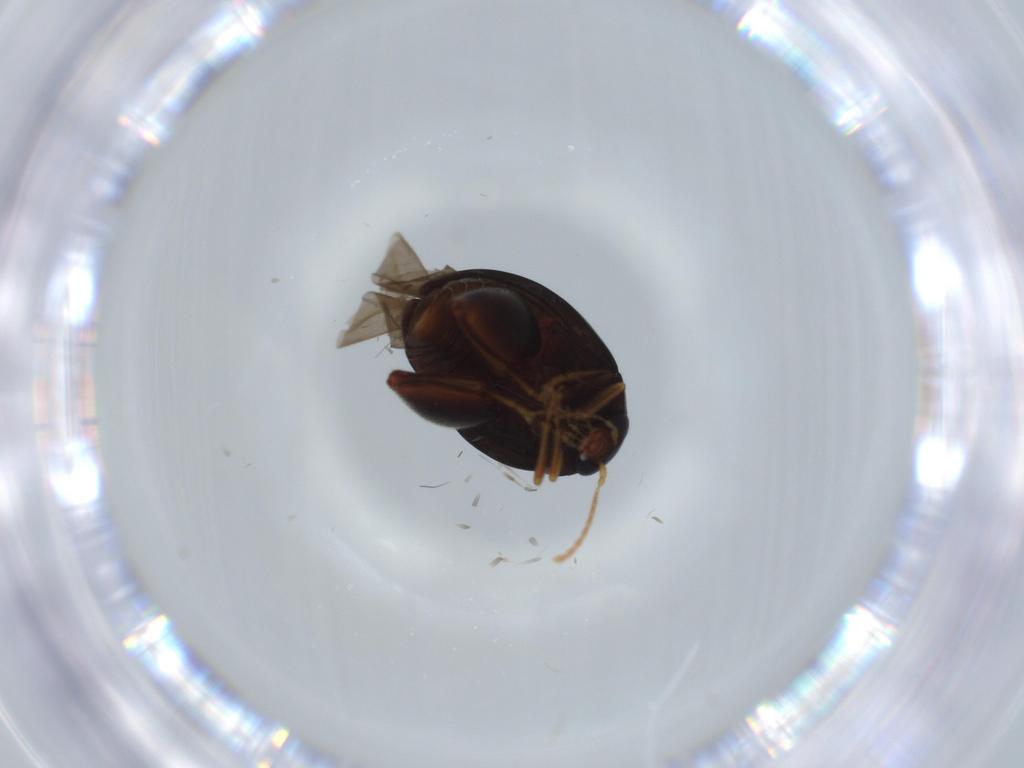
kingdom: Animalia
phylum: Arthropoda
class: Insecta
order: Coleoptera
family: Chrysomelidae
